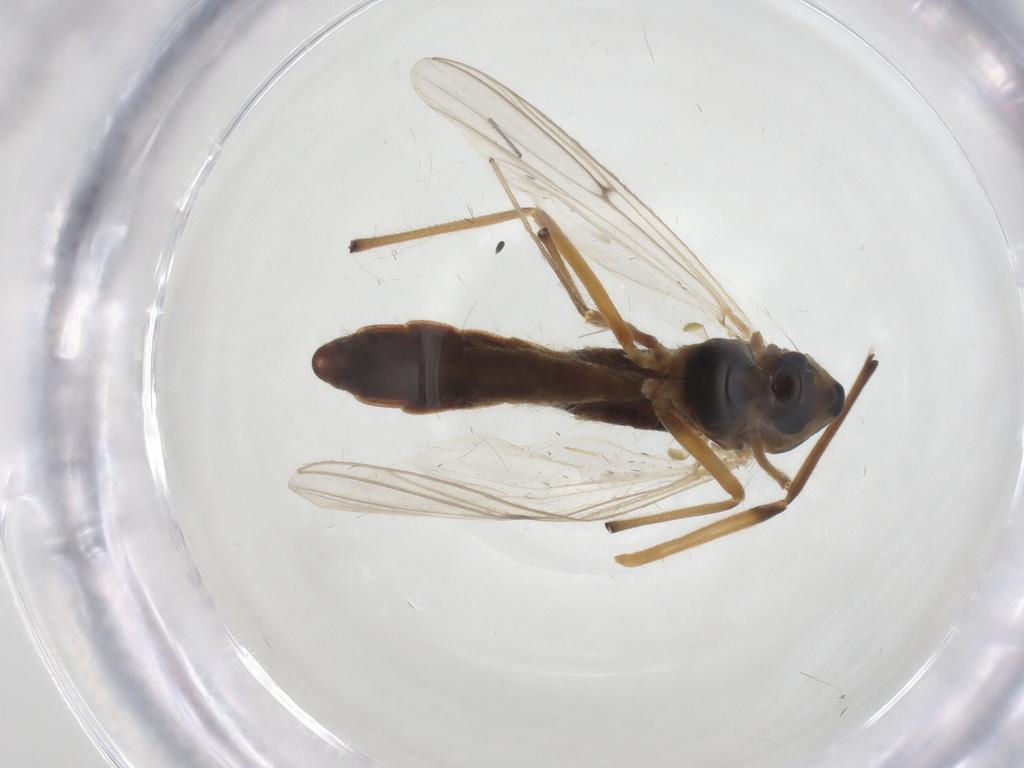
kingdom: Animalia
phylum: Arthropoda
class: Insecta
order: Diptera
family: Chironomidae
